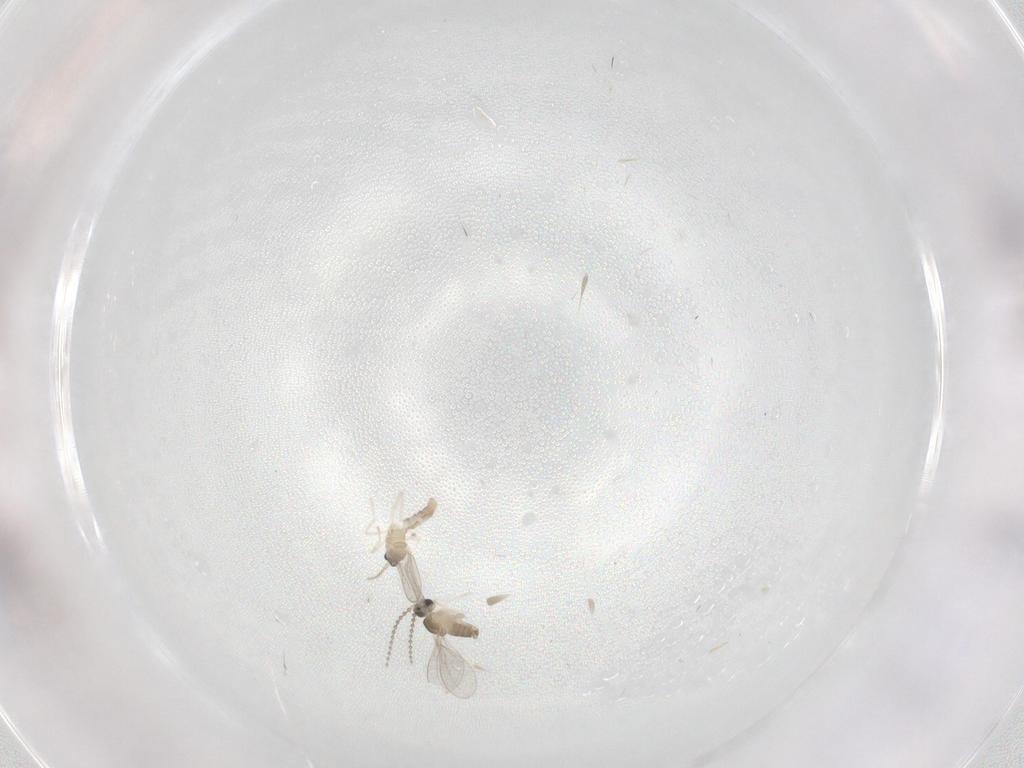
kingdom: Animalia
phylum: Arthropoda
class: Insecta
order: Diptera
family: Cecidomyiidae
